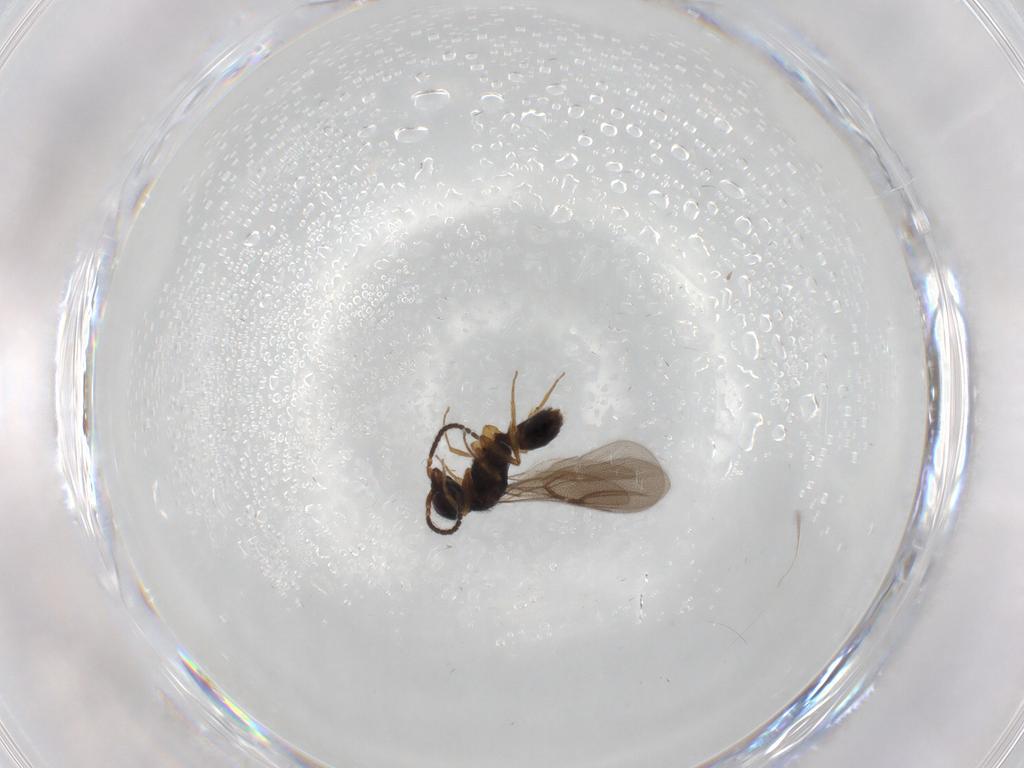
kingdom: Animalia
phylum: Arthropoda
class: Insecta
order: Hymenoptera
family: Bethylidae
